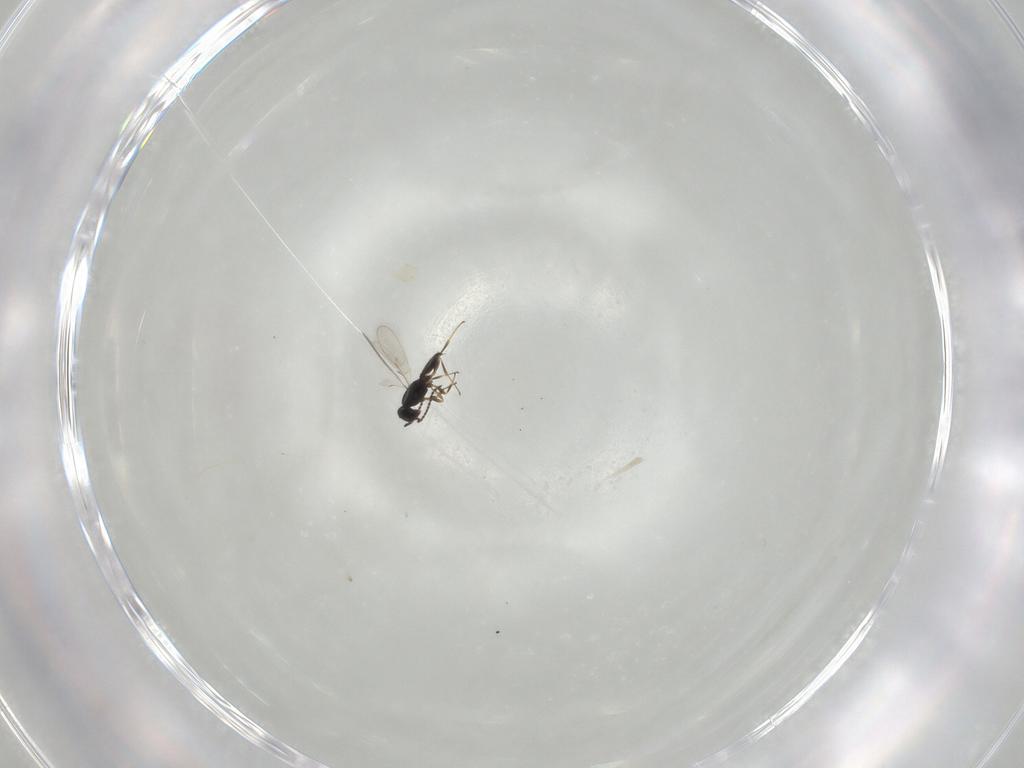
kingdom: Animalia
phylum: Arthropoda
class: Insecta
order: Hymenoptera
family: Scelionidae
